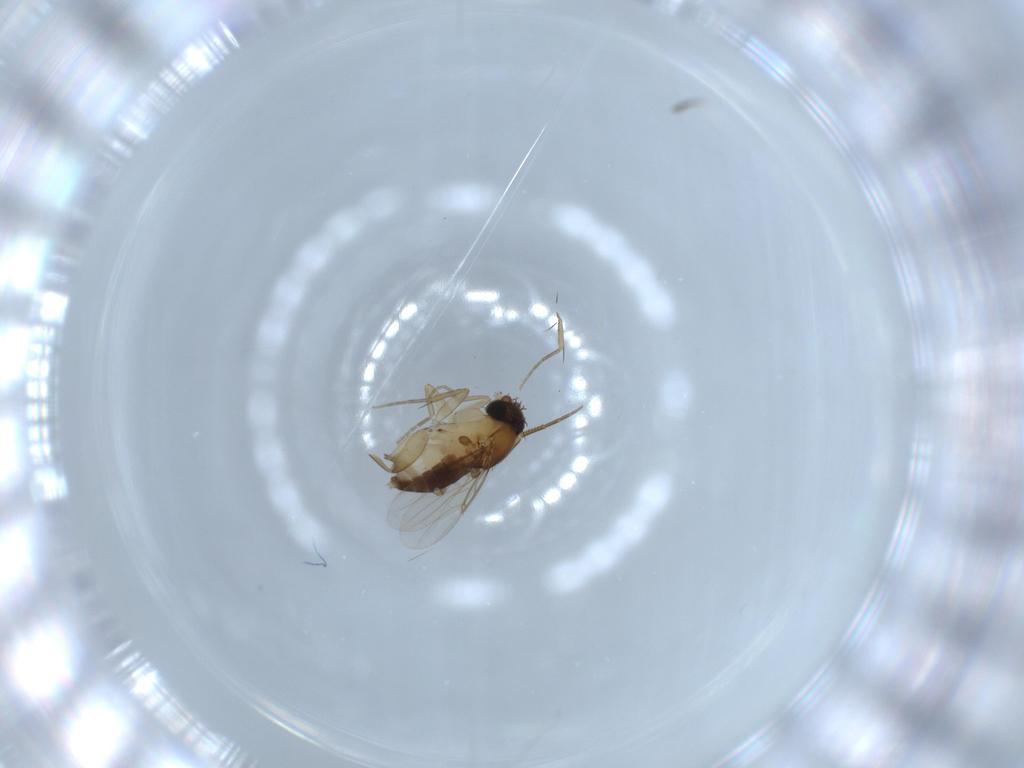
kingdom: Animalia
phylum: Arthropoda
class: Insecta
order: Diptera
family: Phoridae
